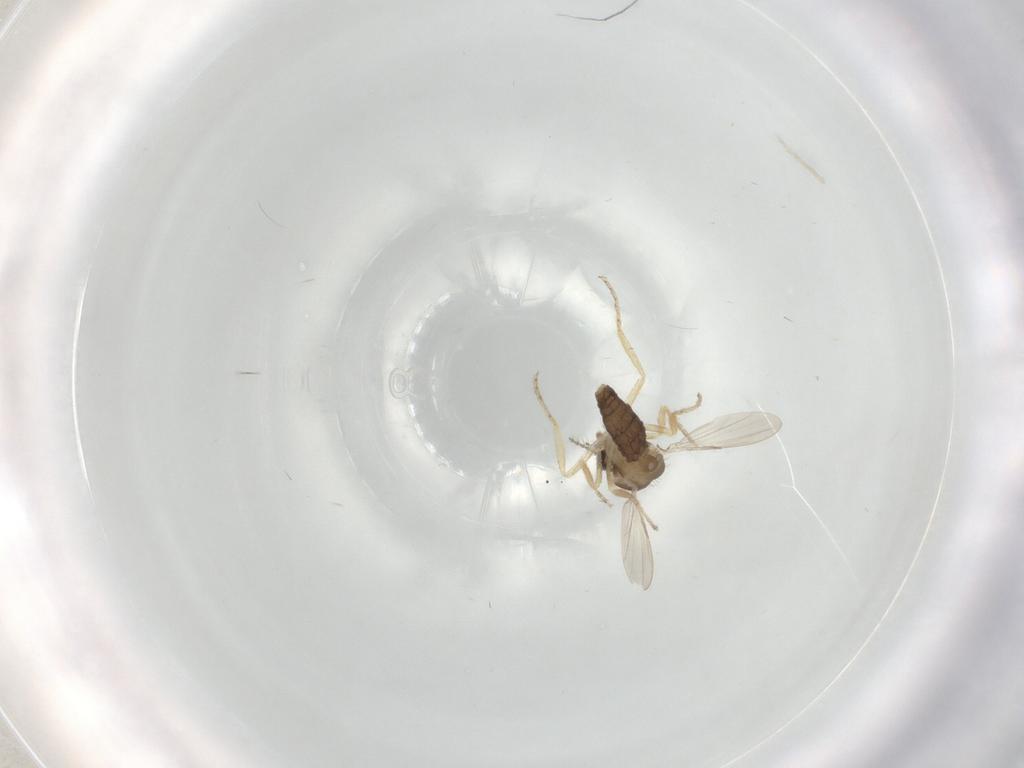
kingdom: Animalia
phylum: Arthropoda
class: Insecta
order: Diptera
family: Ceratopogonidae
